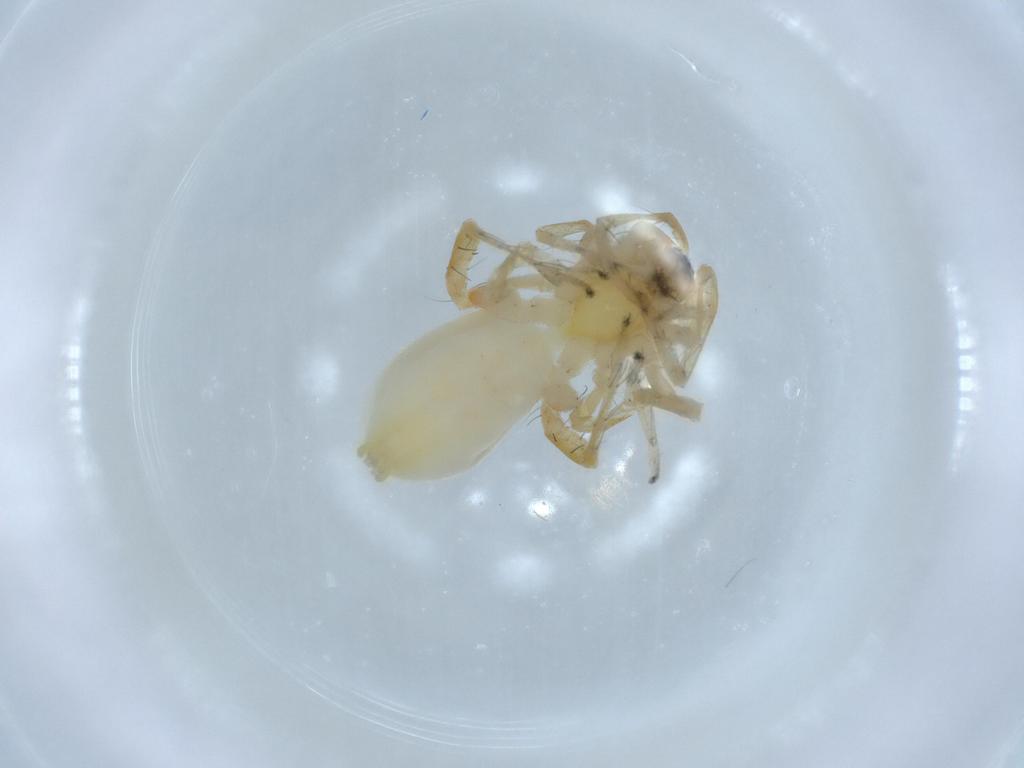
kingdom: Animalia
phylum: Arthropoda
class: Arachnida
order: Araneae
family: Anyphaenidae
